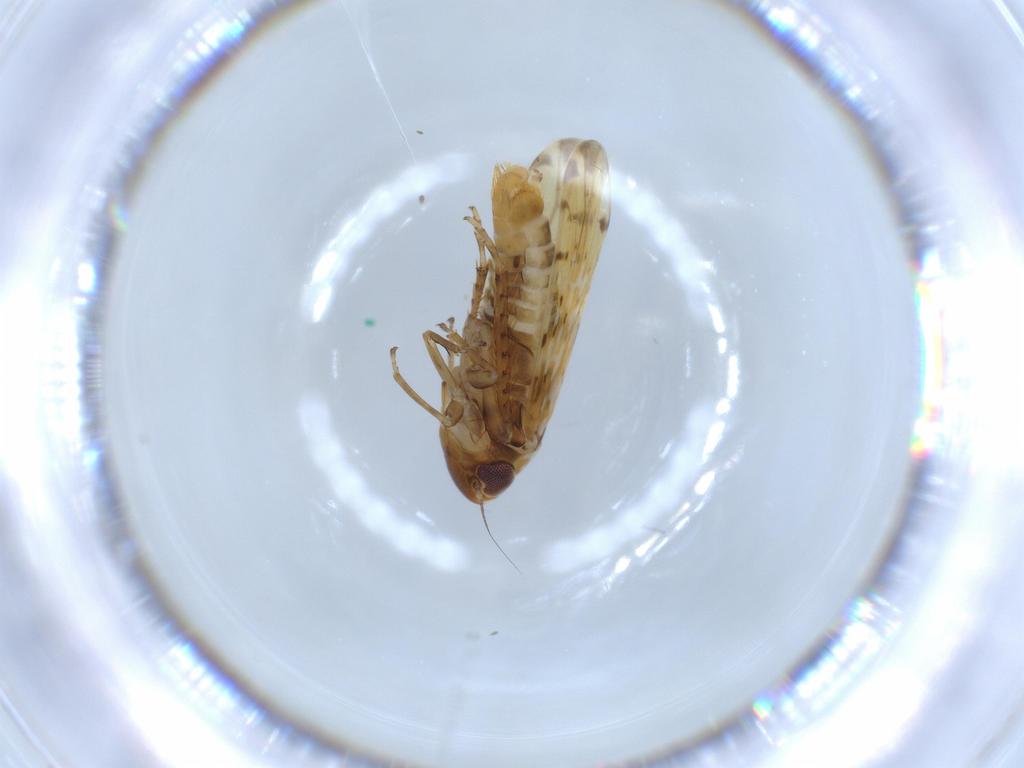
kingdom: Animalia
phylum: Arthropoda
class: Insecta
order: Hemiptera
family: Cicadellidae
